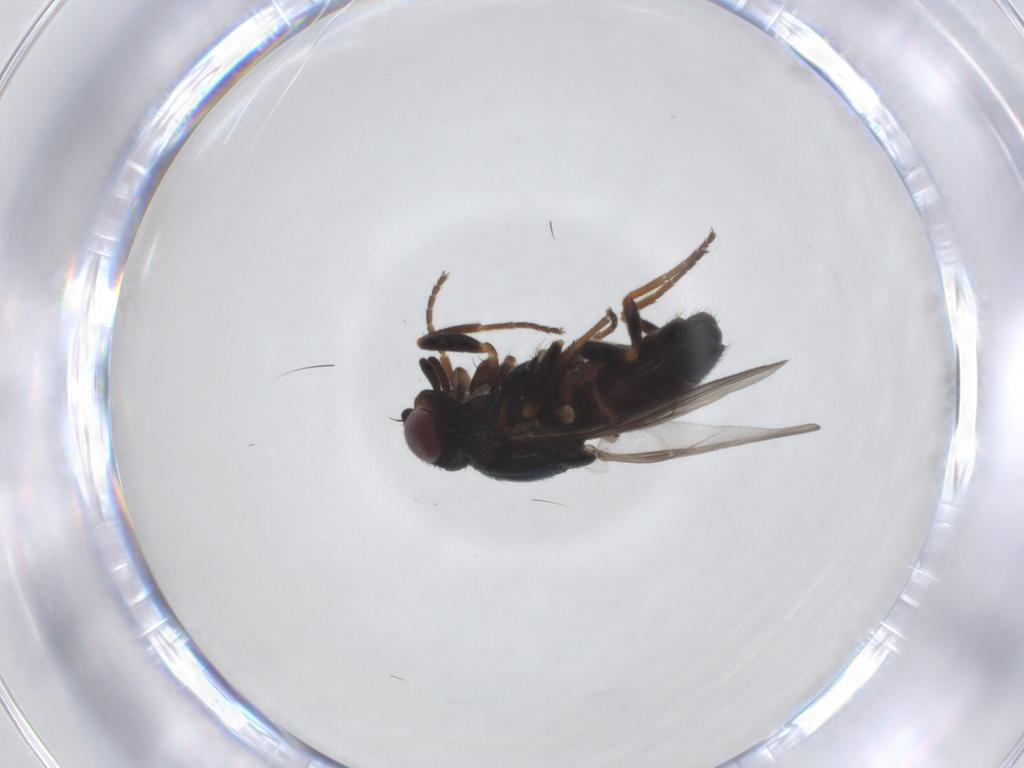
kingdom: Animalia
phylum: Arthropoda
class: Insecta
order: Diptera
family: Chloropidae
